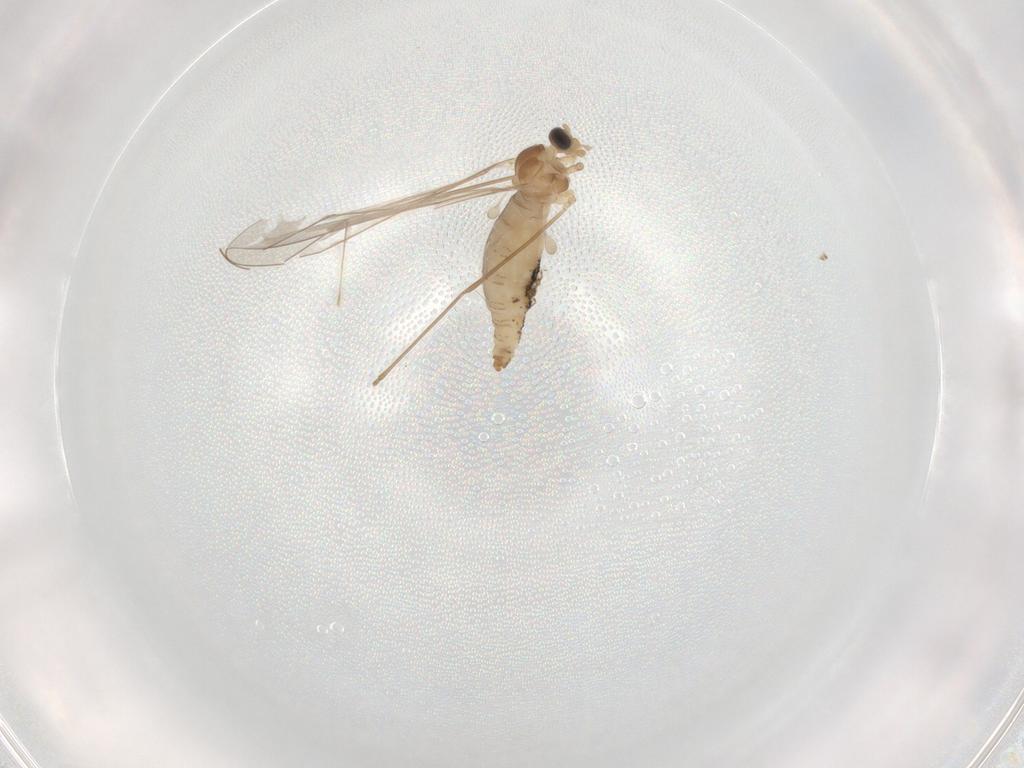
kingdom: Animalia
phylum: Arthropoda
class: Insecta
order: Diptera
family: Cecidomyiidae
